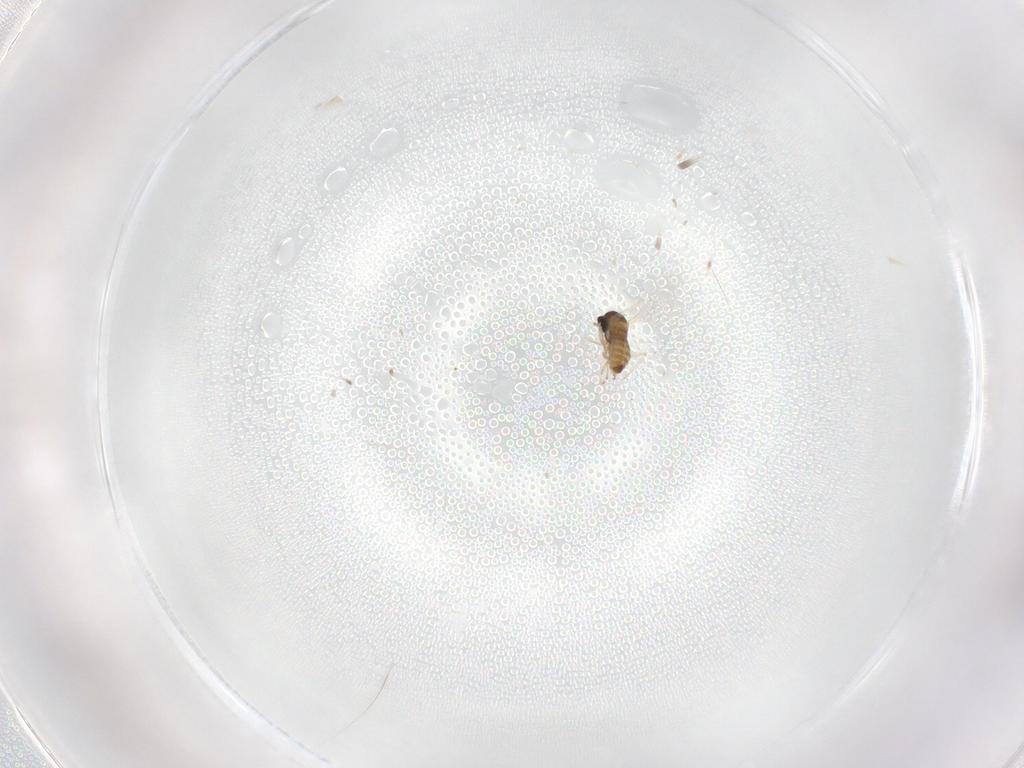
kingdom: Animalia
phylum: Arthropoda
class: Insecta
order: Diptera
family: Cecidomyiidae
